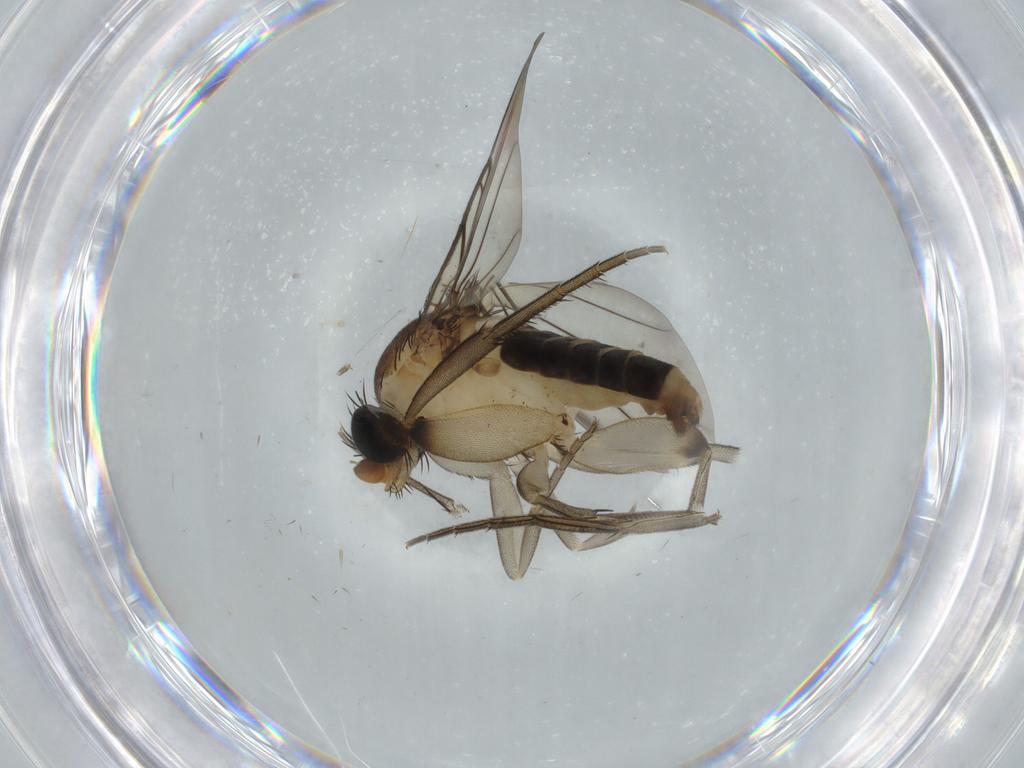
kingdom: Animalia
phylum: Arthropoda
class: Insecta
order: Diptera
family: Phoridae
